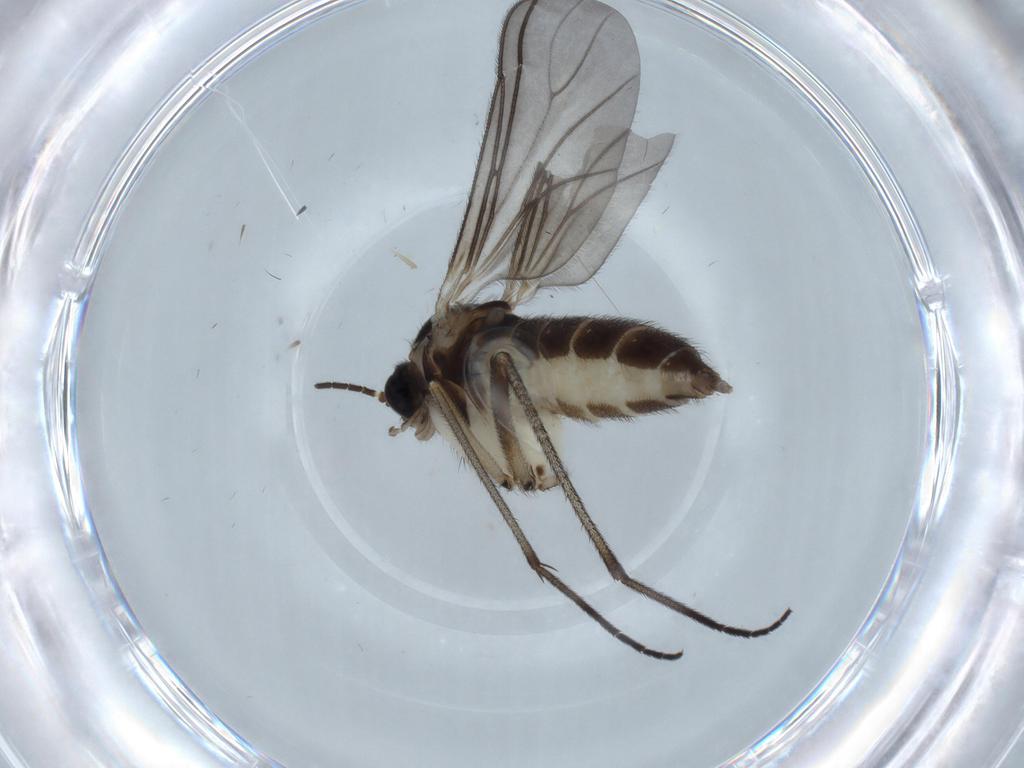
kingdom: Animalia
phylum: Arthropoda
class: Insecta
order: Diptera
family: Sciaridae
